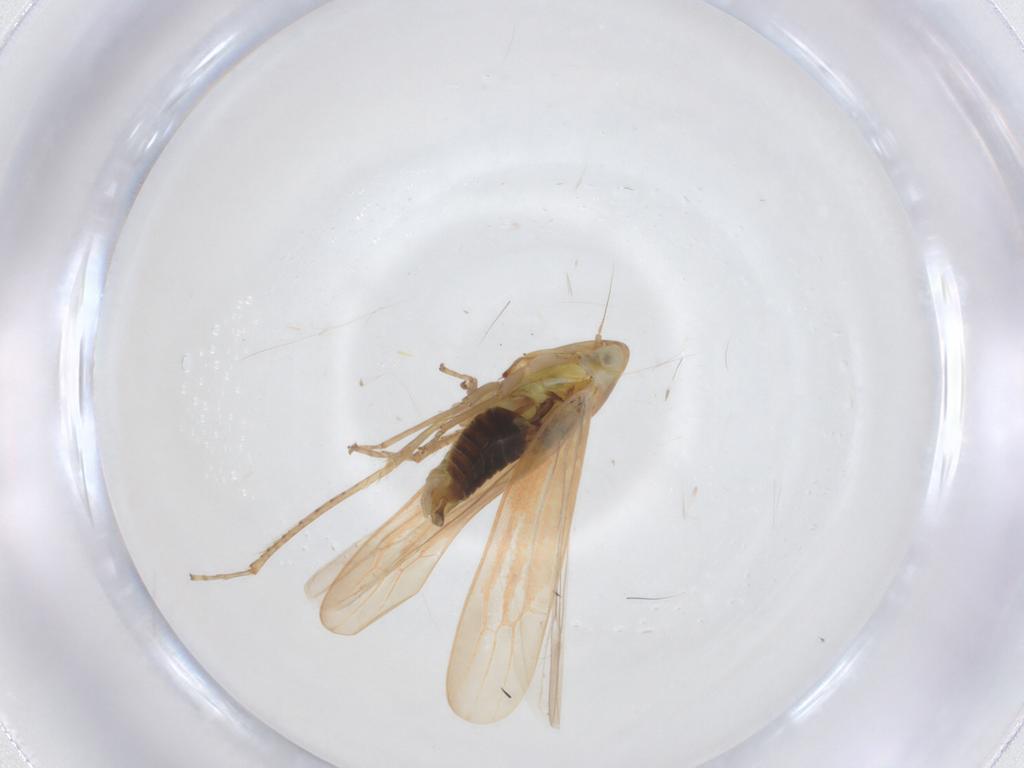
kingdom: Animalia
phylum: Arthropoda
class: Insecta
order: Hemiptera
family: Cicadellidae
